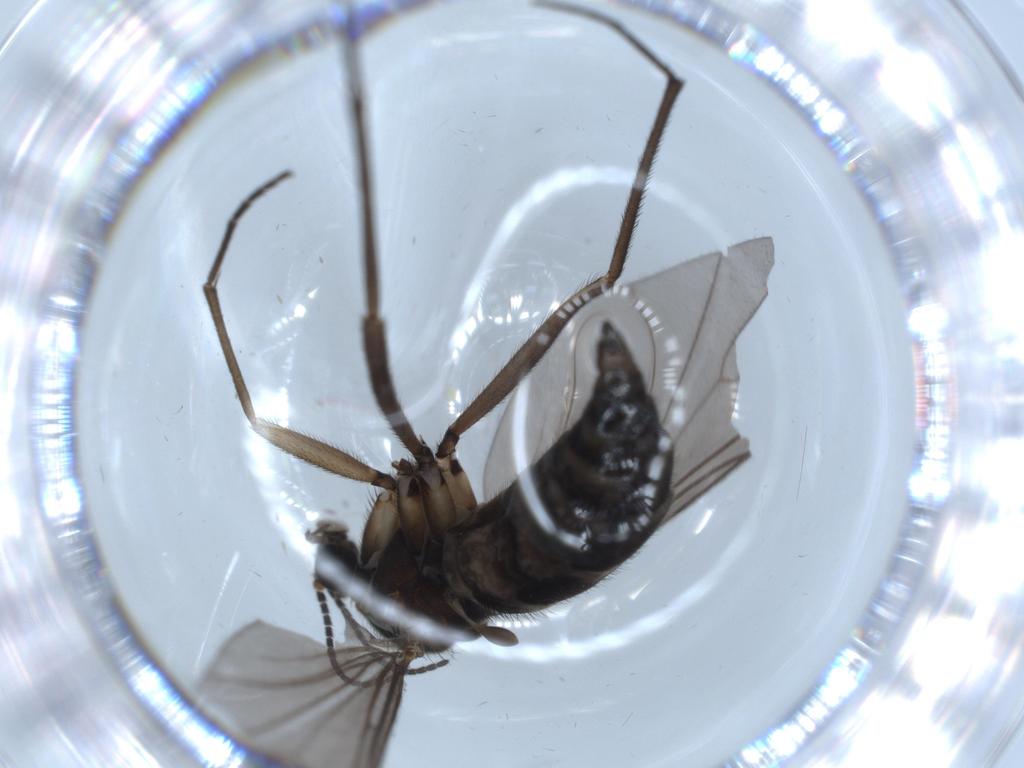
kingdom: Animalia
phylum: Arthropoda
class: Insecta
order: Diptera
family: Sciaridae
